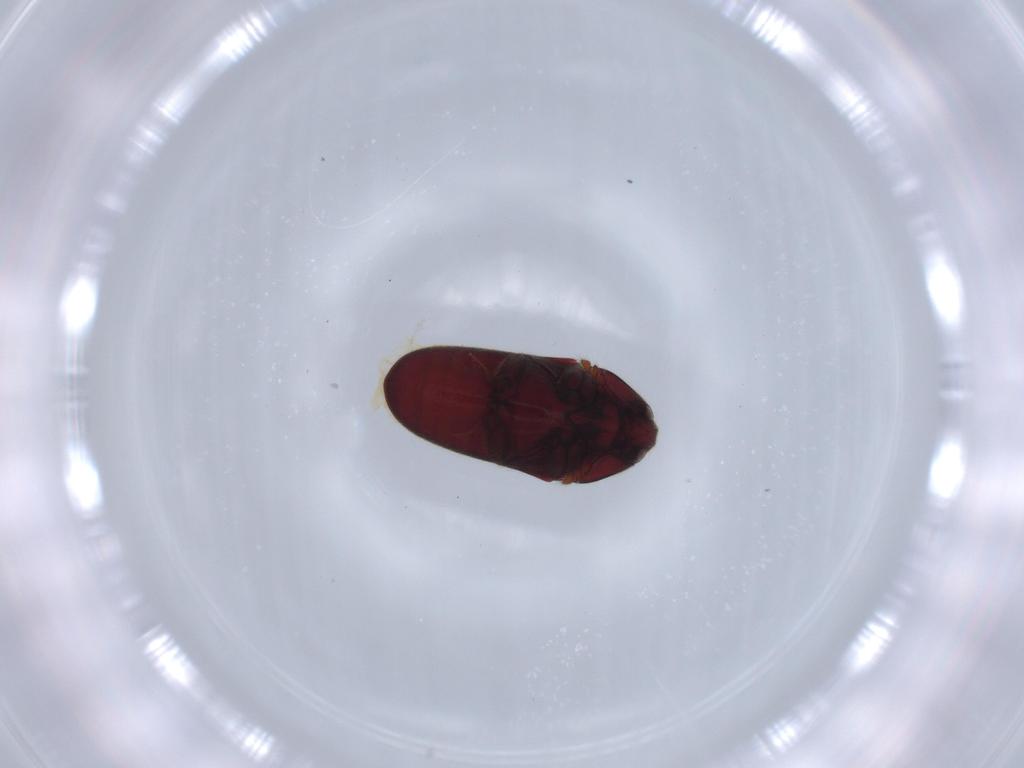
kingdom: Animalia
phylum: Arthropoda
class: Insecta
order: Coleoptera
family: Throscidae
